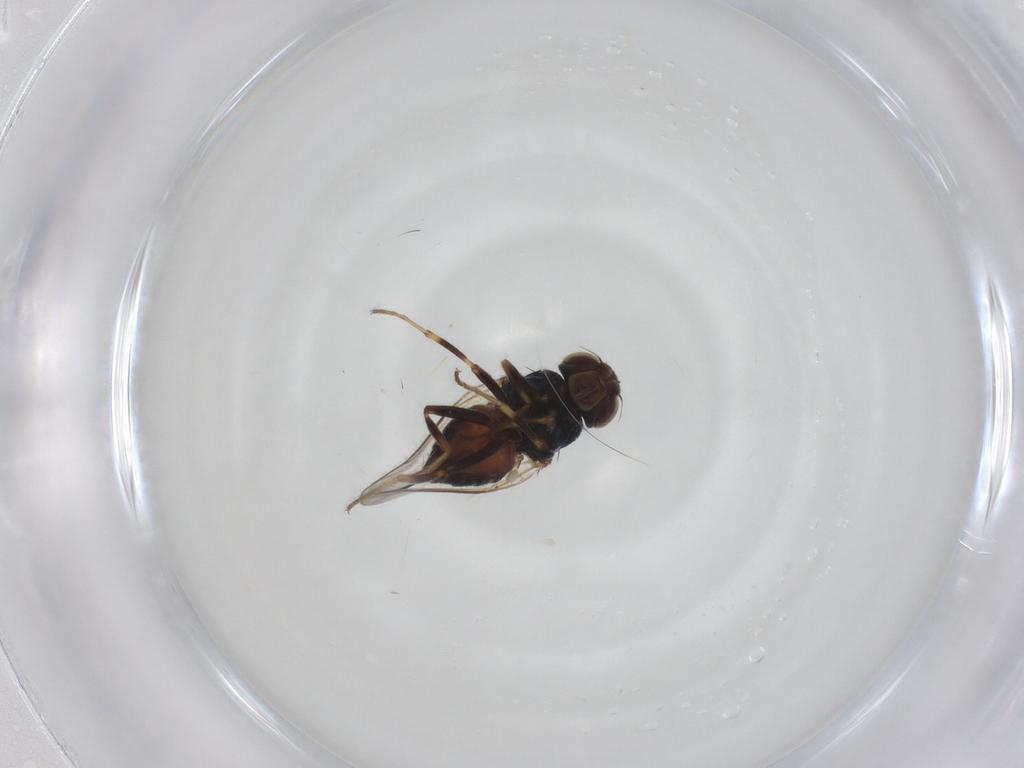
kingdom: Animalia
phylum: Arthropoda
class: Insecta
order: Diptera
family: Chloropidae
